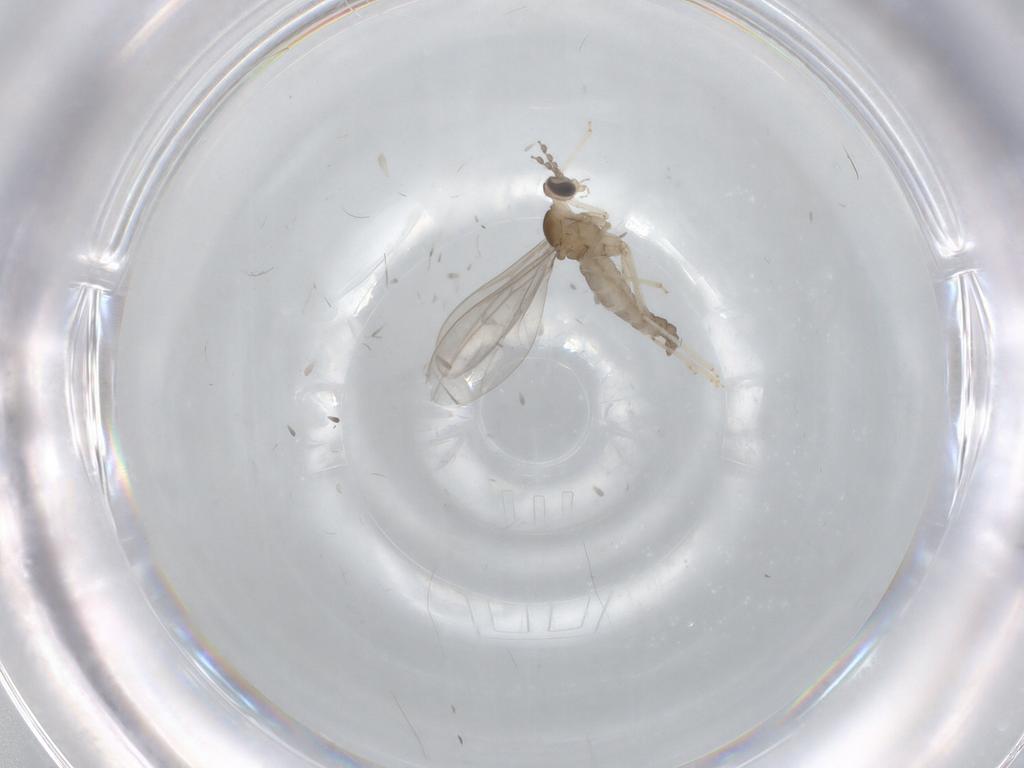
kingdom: Animalia
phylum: Arthropoda
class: Insecta
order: Diptera
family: Cecidomyiidae
